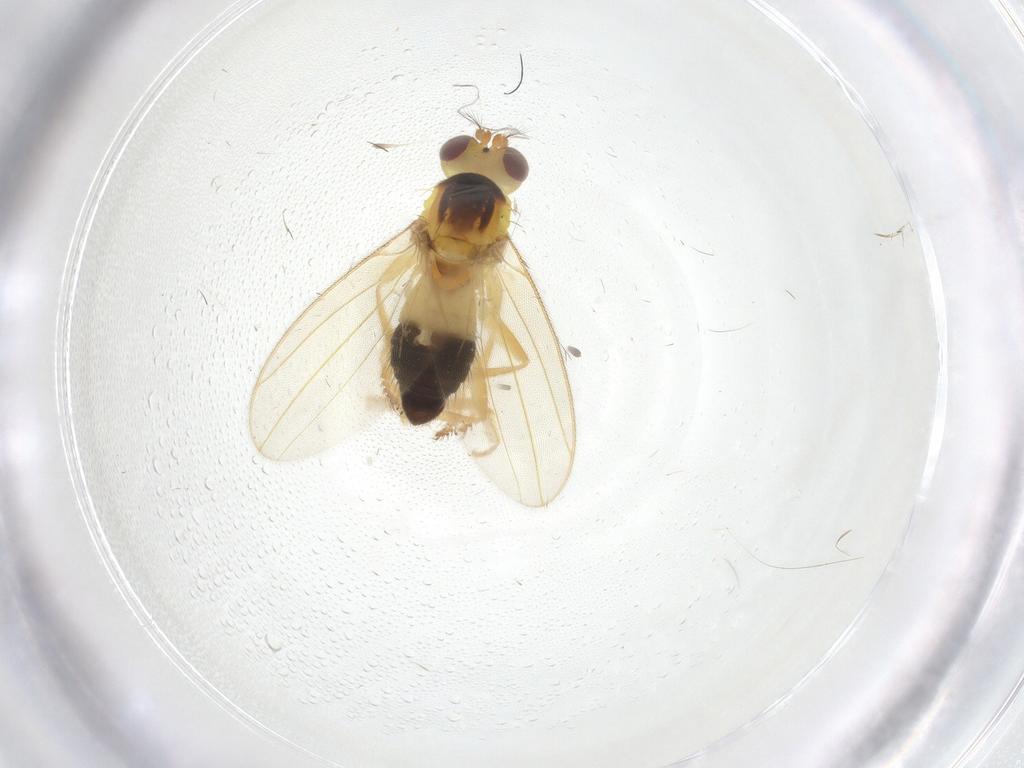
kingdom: Animalia
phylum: Arthropoda
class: Insecta
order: Diptera
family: Periscelididae
